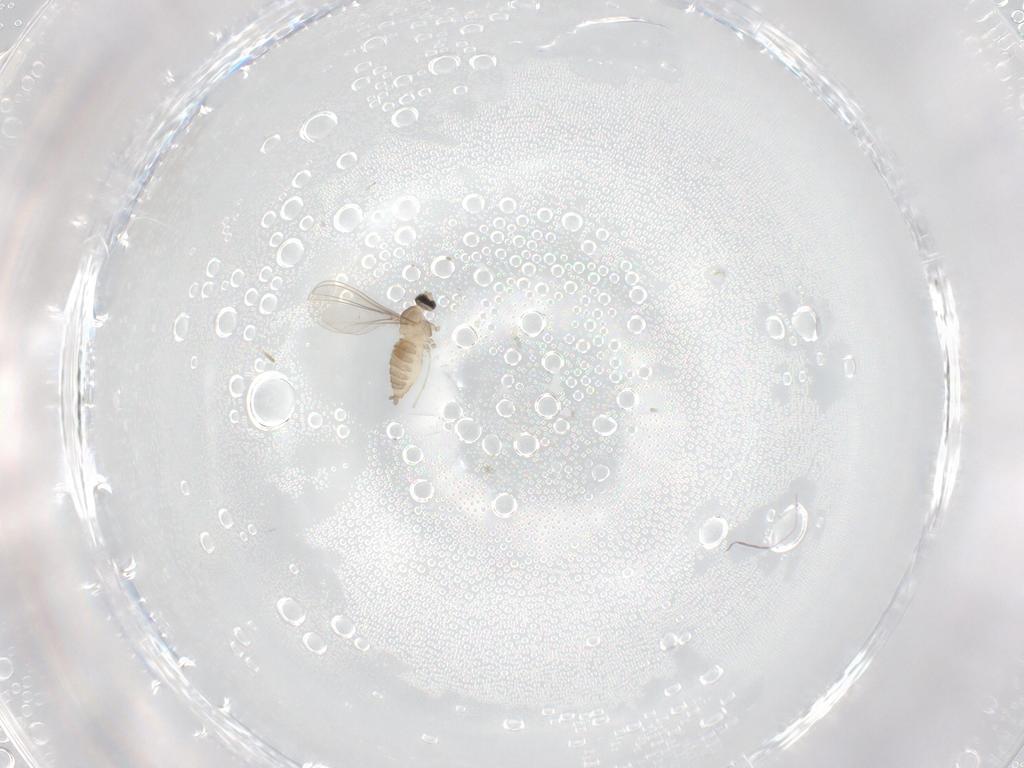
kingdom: Animalia
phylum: Arthropoda
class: Insecta
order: Diptera
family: Cecidomyiidae
